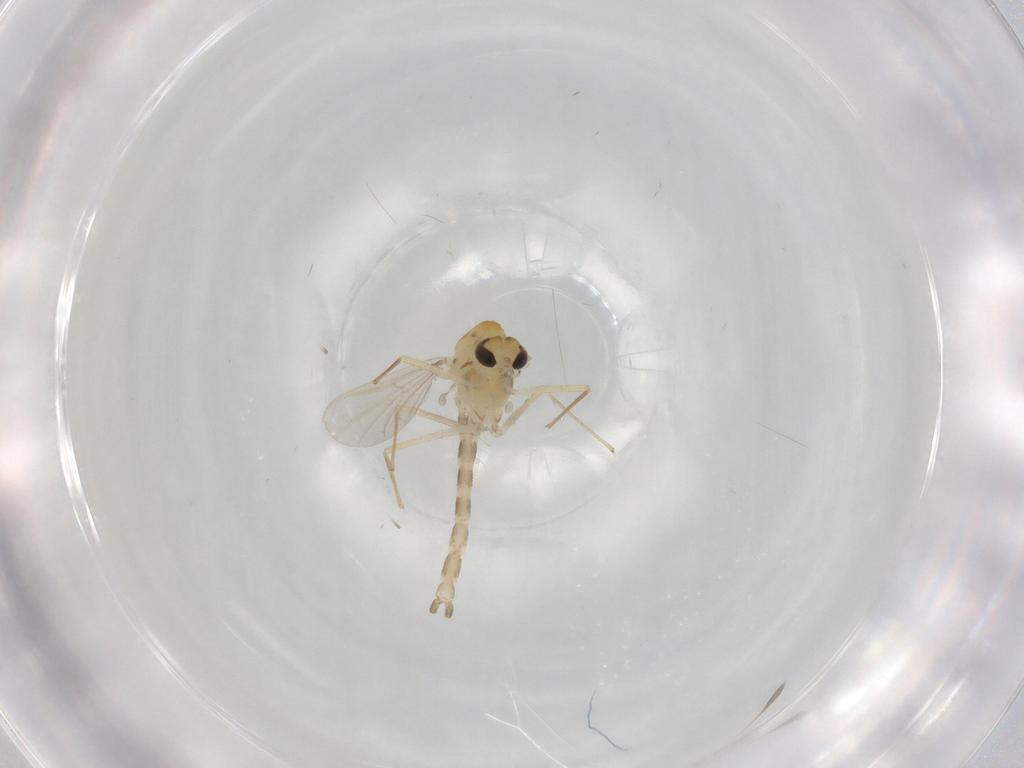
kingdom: Animalia
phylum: Arthropoda
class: Insecta
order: Diptera
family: Chironomidae
